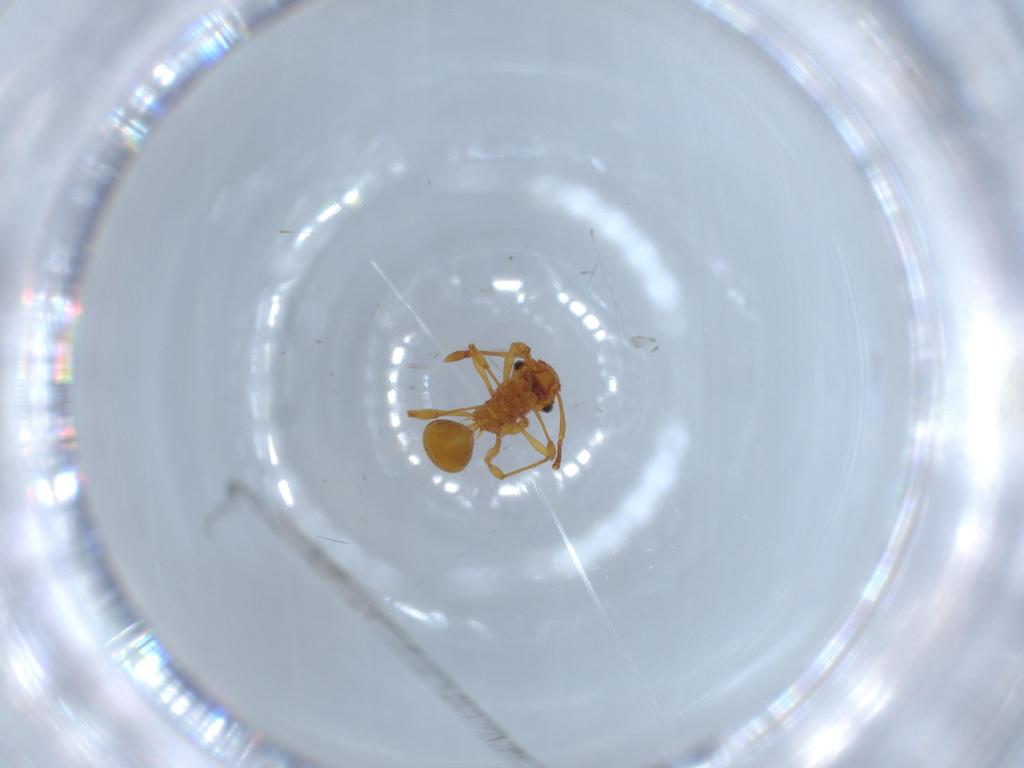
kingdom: Animalia
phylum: Arthropoda
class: Insecta
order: Hymenoptera
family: Formicidae
